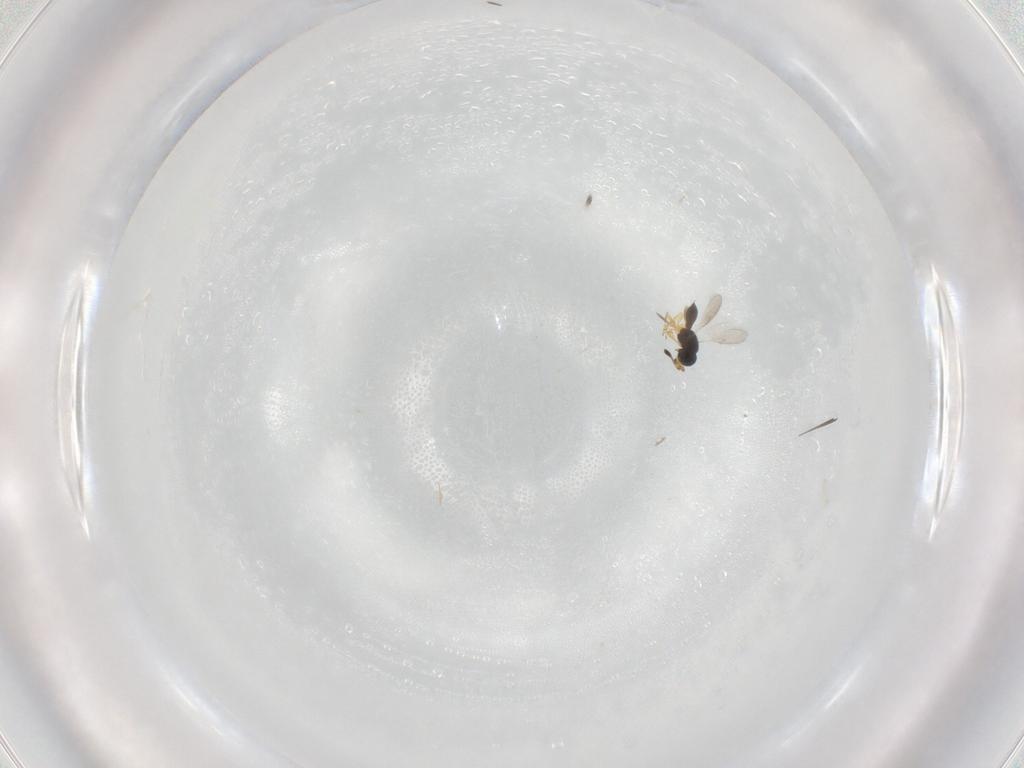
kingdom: Animalia
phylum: Arthropoda
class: Insecta
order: Hymenoptera
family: Scelionidae
